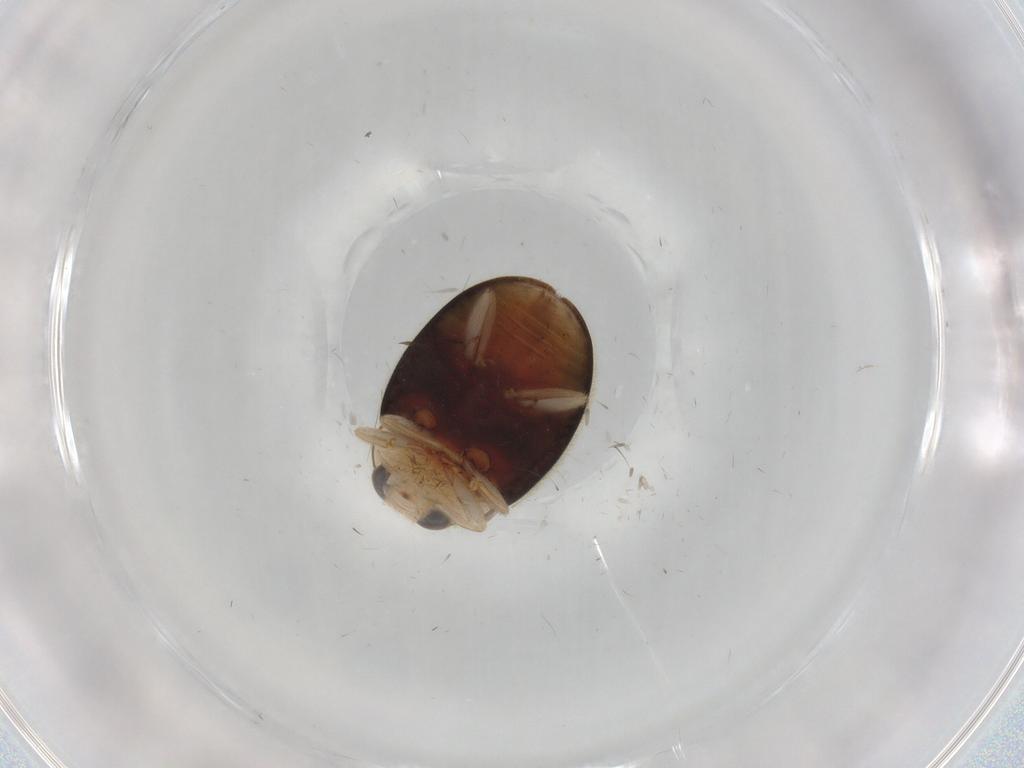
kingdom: Animalia
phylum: Arthropoda
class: Insecta
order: Coleoptera
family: Coccinellidae
